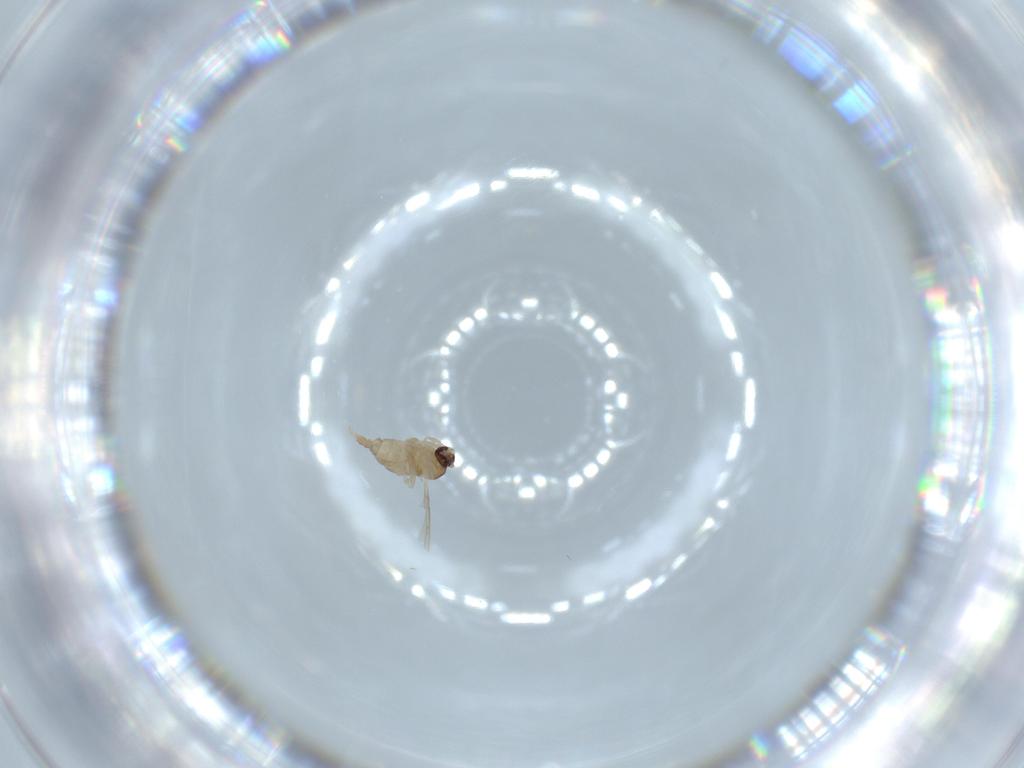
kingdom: Animalia
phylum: Arthropoda
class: Insecta
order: Diptera
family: Cecidomyiidae
